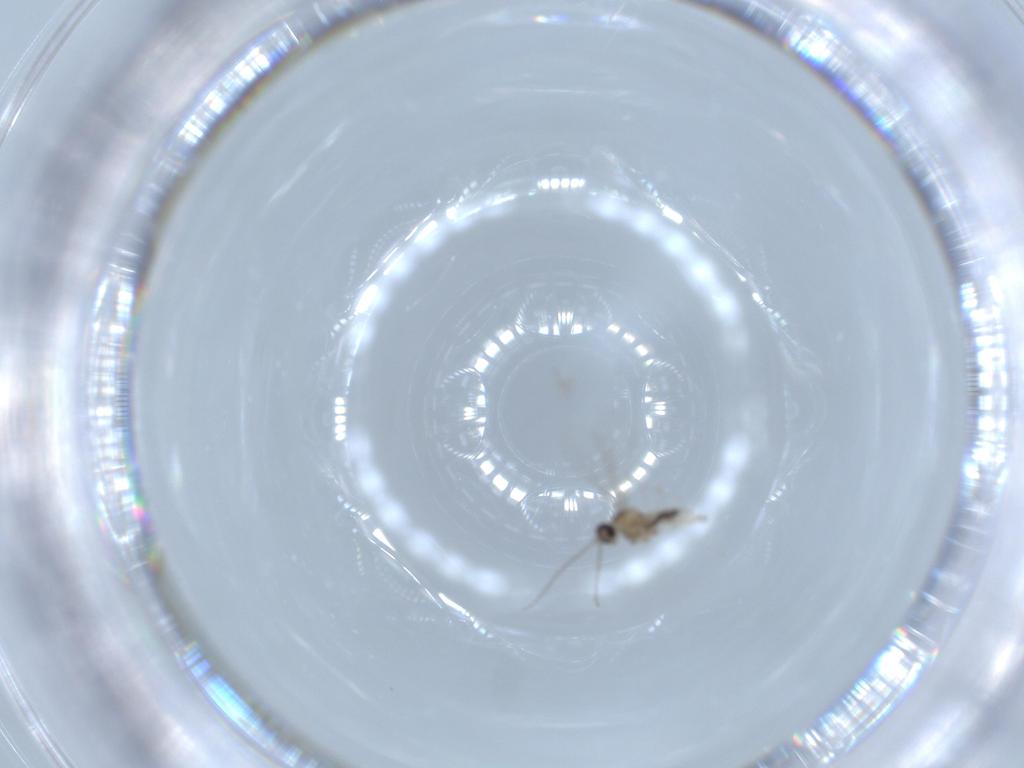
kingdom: Animalia
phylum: Arthropoda
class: Insecta
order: Diptera
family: Cecidomyiidae
